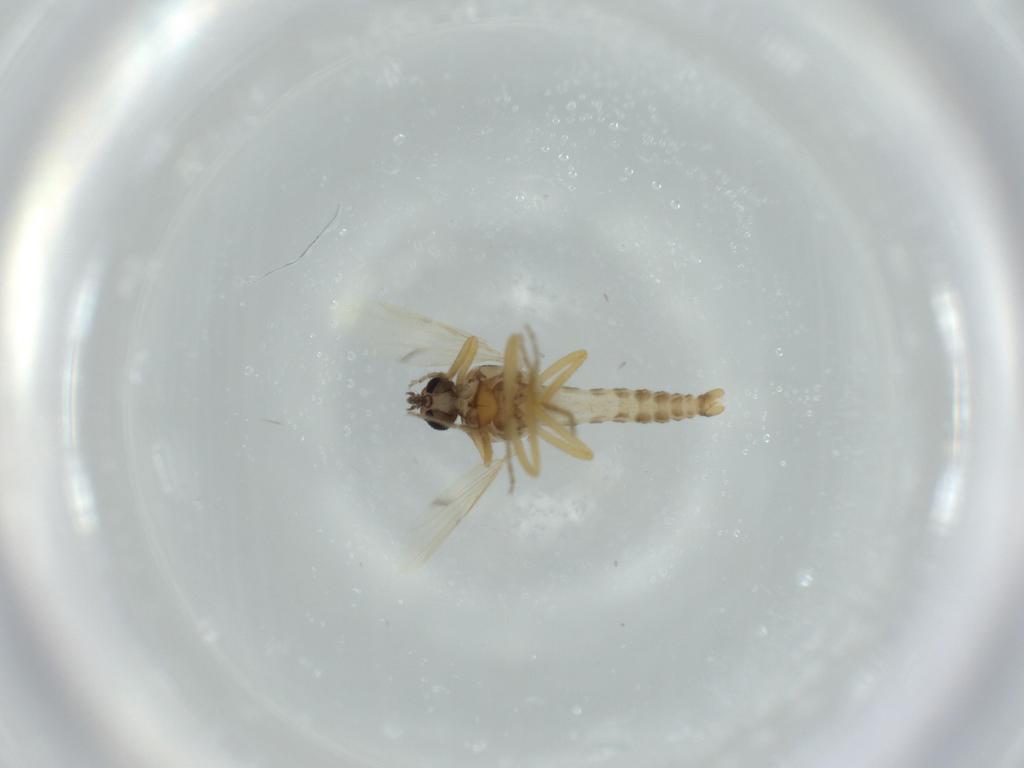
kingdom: Animalia
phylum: Arthropoda
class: Insecta
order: Diptera
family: Ceratopogonidae
